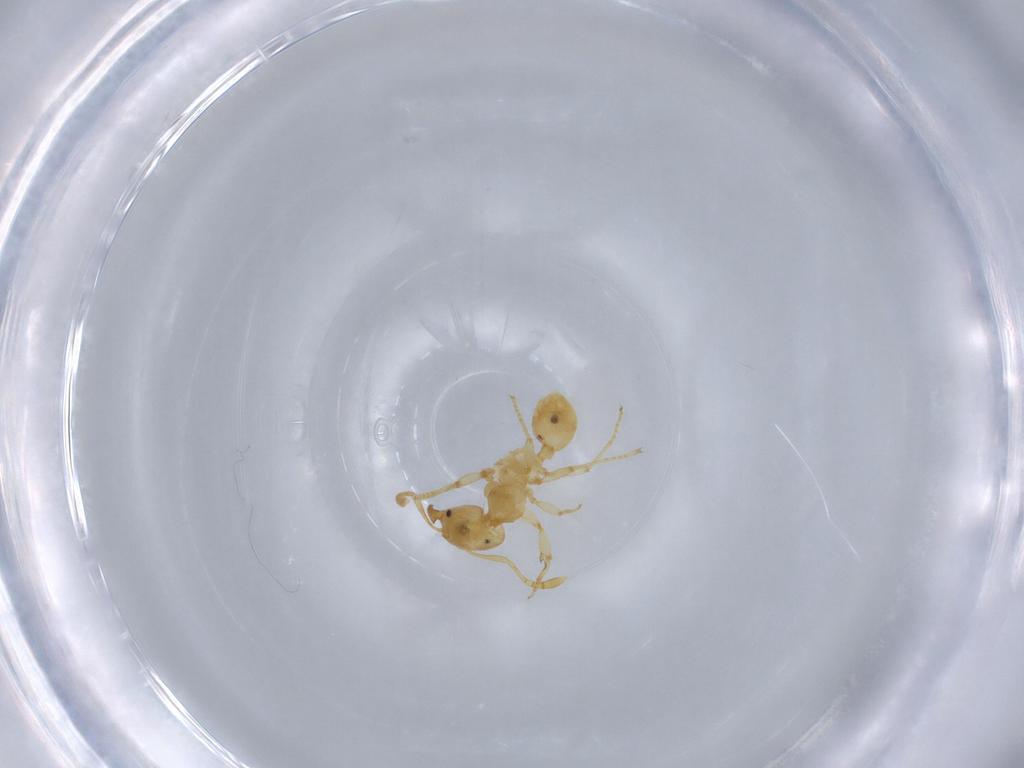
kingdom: Animalia
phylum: Arthropoda
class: Insecta
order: Hymenoptera
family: Formicidae
